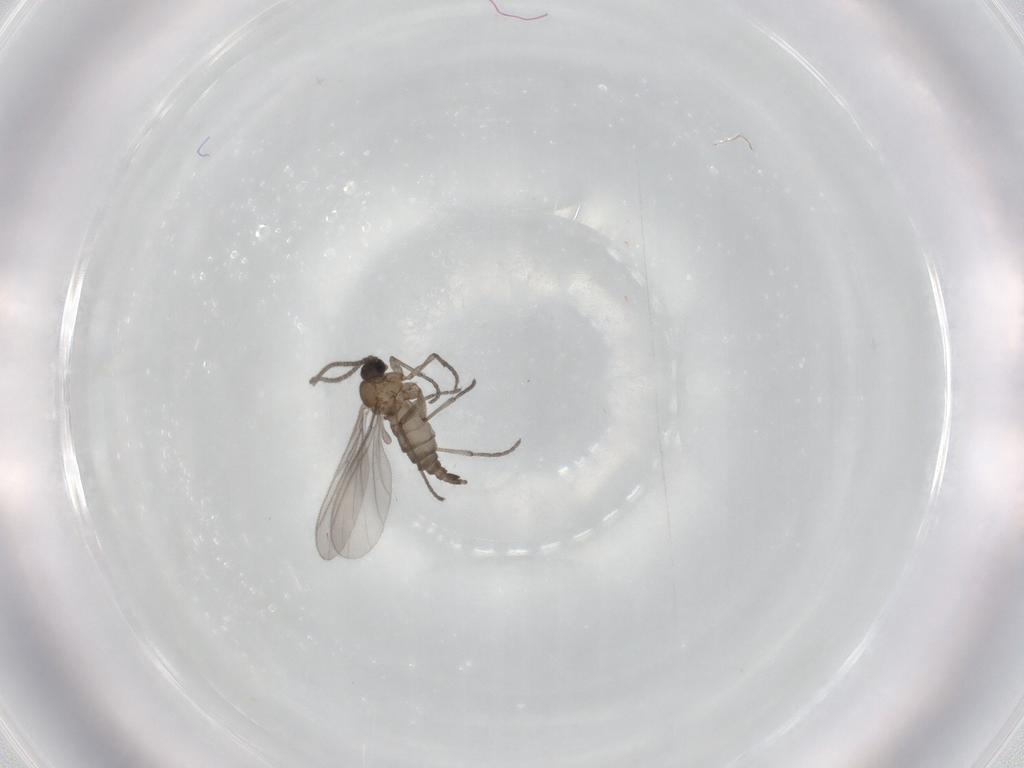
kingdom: Animalia
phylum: Arthropoda
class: Insecta
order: Diptera
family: Sciaridae
